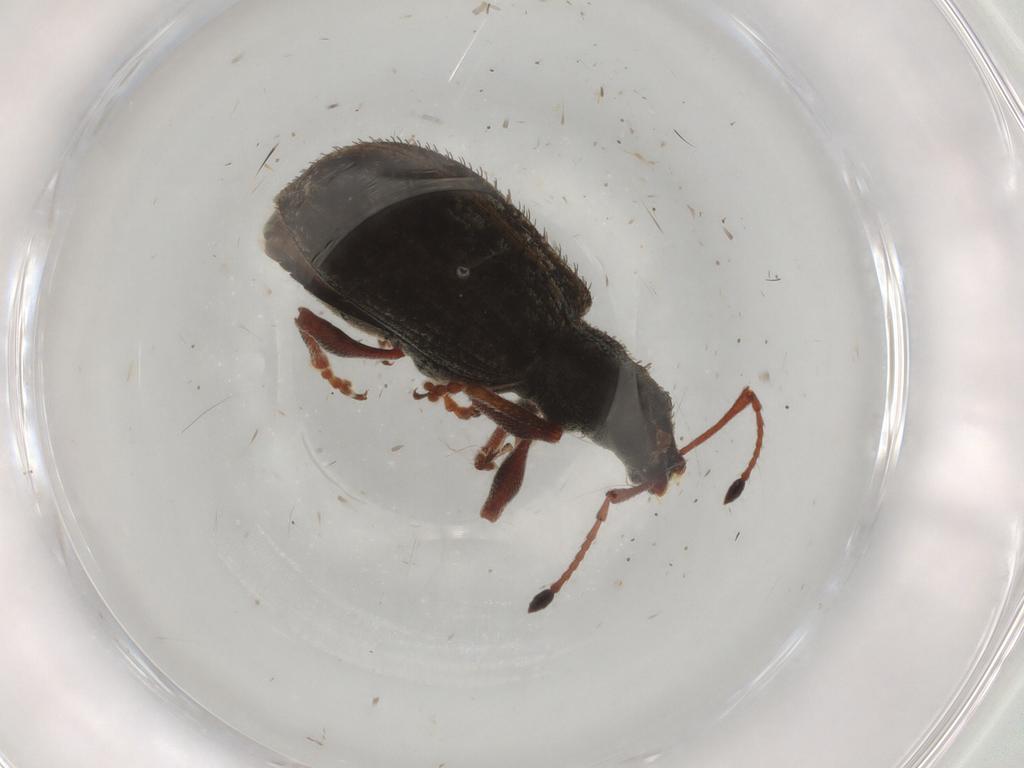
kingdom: Animalia
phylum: Arthropoda
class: Insecta
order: Coleoptera
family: Curculionidae
